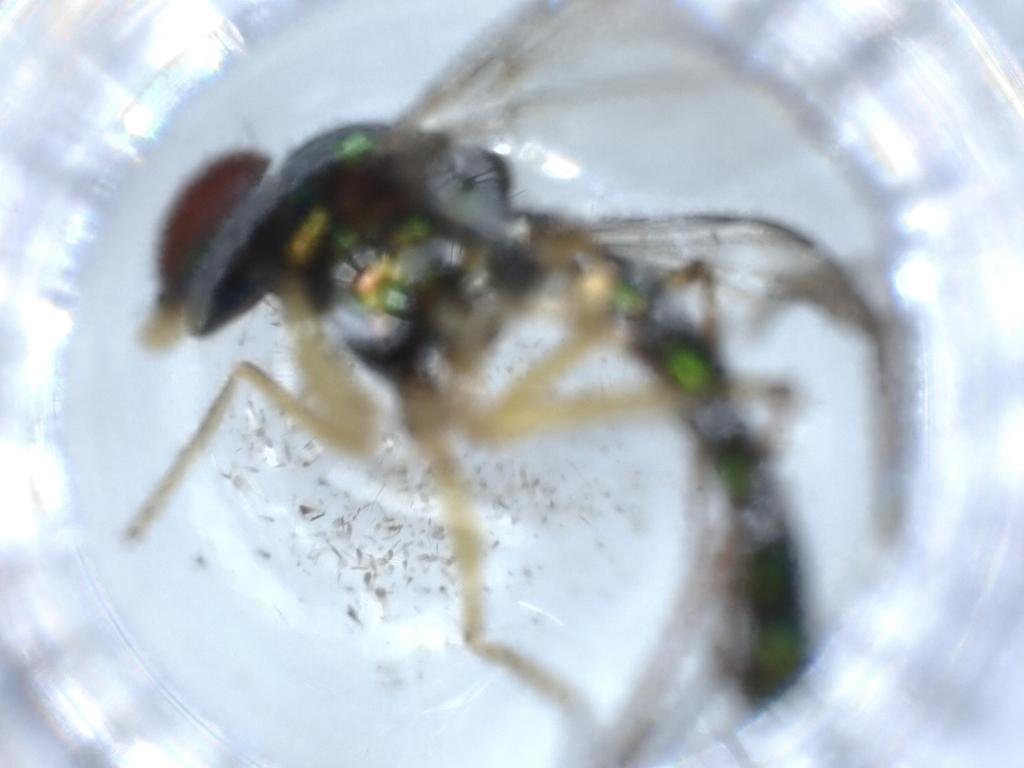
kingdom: Animalia
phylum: Arthropoda
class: Insecta
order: Diptera
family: Dolichopodidae
